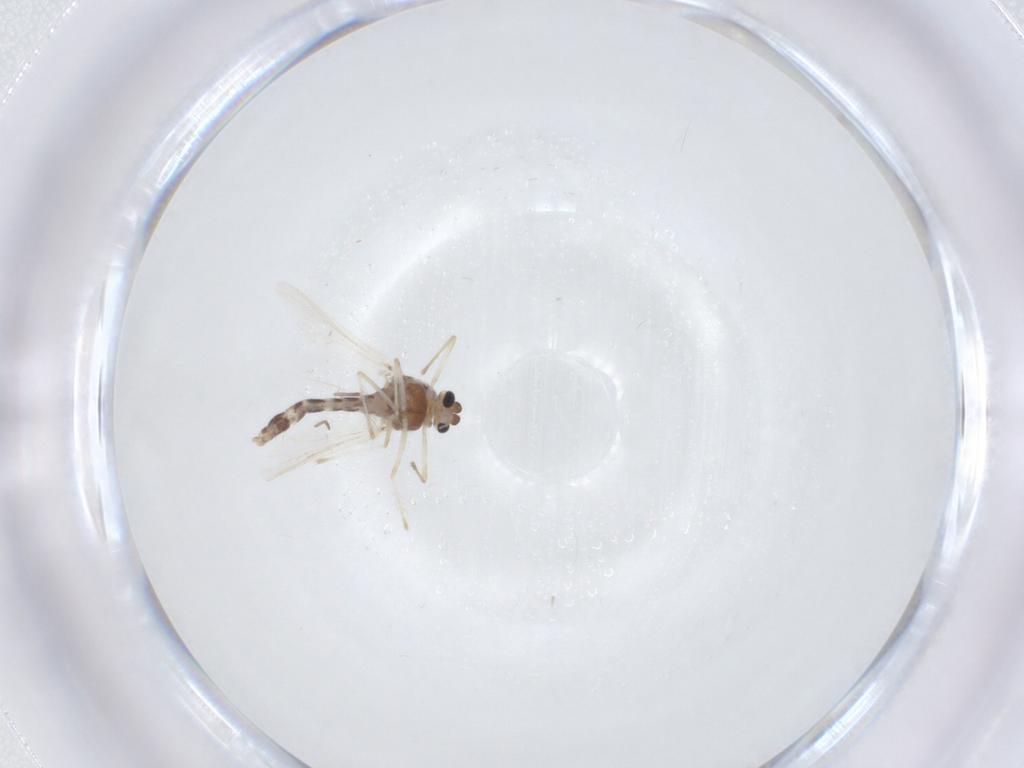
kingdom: Animalia
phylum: Arthropoda
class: Insecta
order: Diptera
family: Chironomidae
